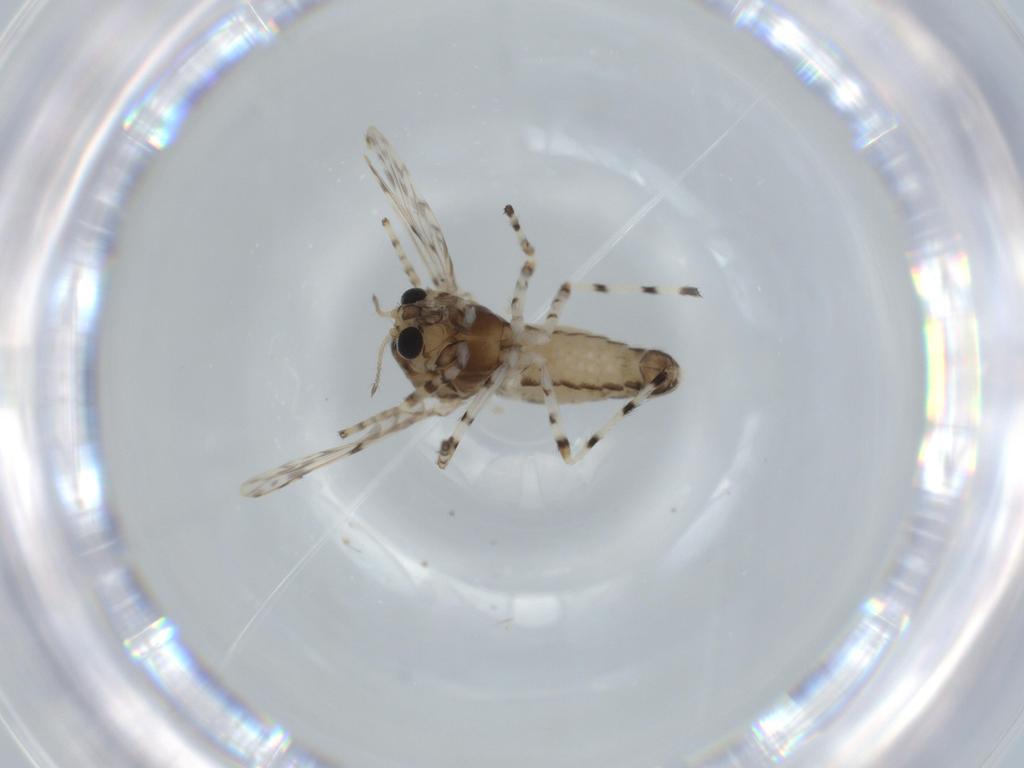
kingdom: Animalia
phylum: Arthropoda
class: Insecta
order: Diptera
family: Chironomidae
